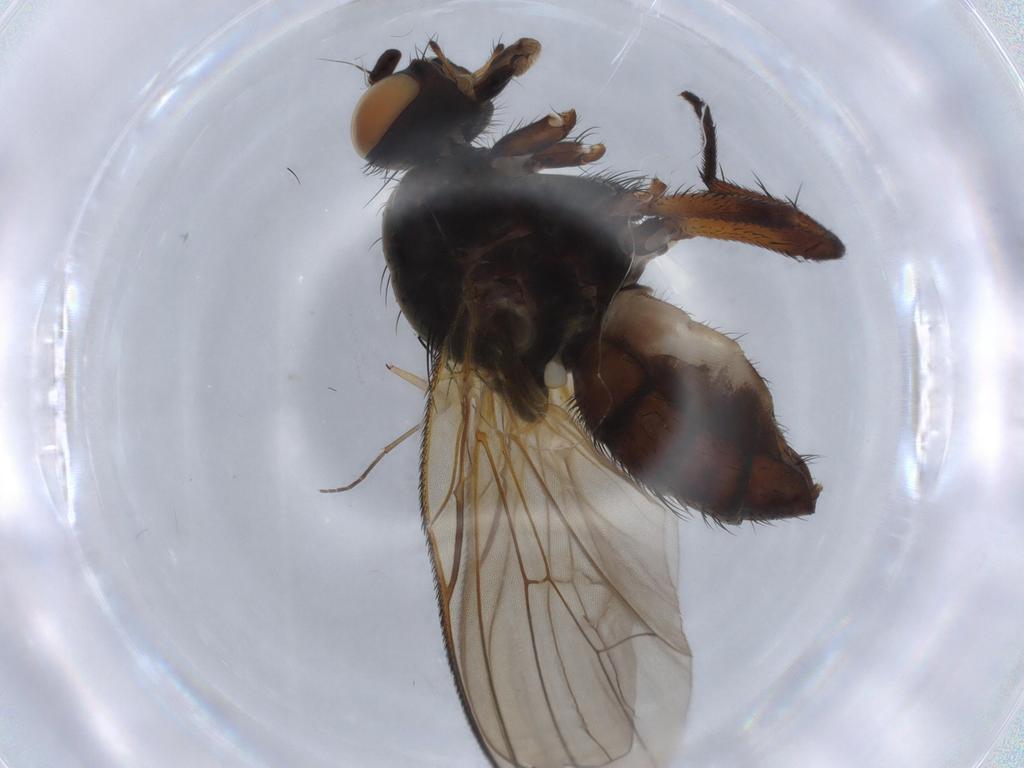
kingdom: Animalia
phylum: Arthropoda
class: Insecta
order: Diptera
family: Anthomyiidae
